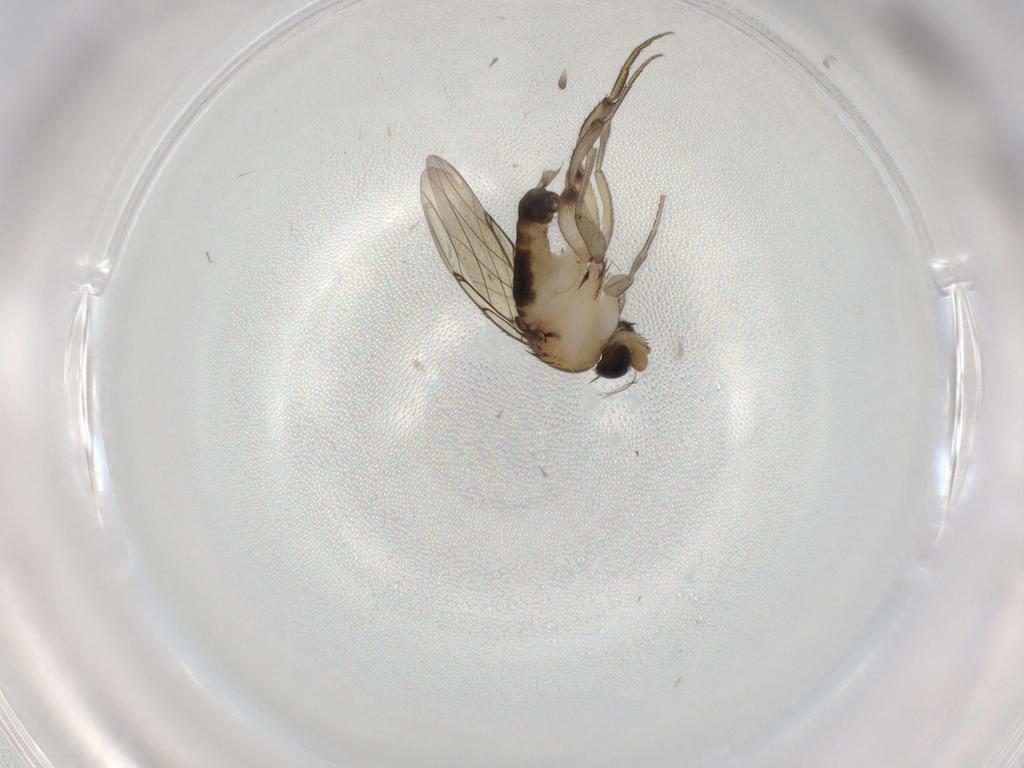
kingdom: Animalia
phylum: Arthropoda
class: Insecta
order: Diptera
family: Phoridae
